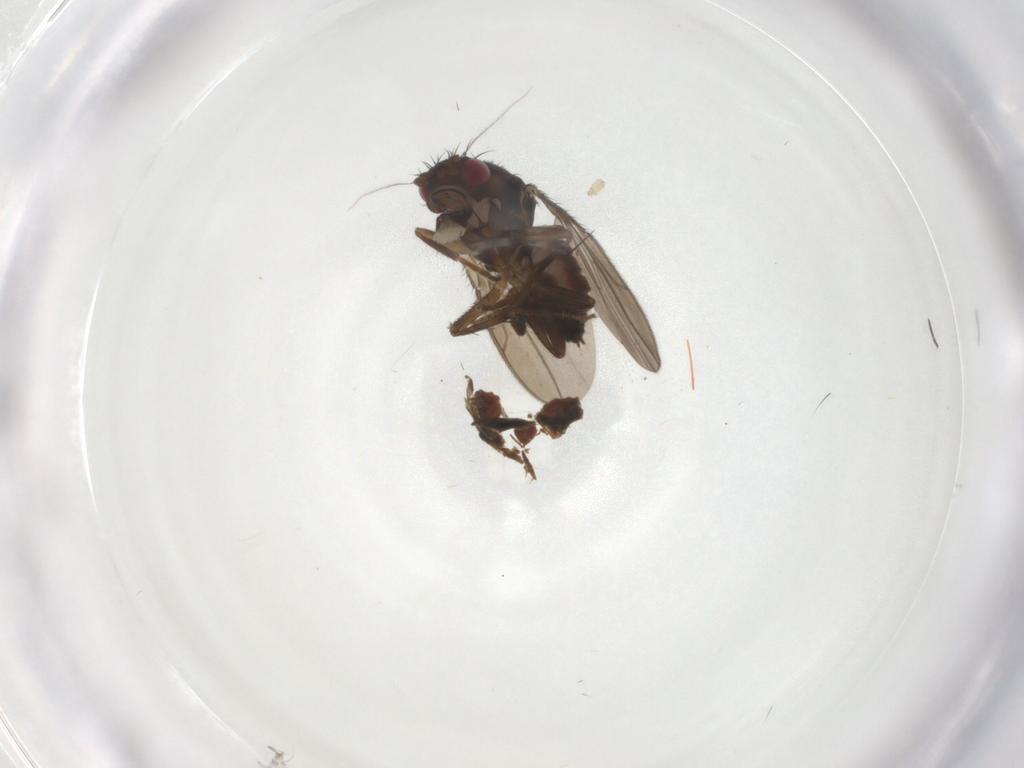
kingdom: Animalia
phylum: Arthropoda
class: Insecta
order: Diptera
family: Sphaeroceridae
